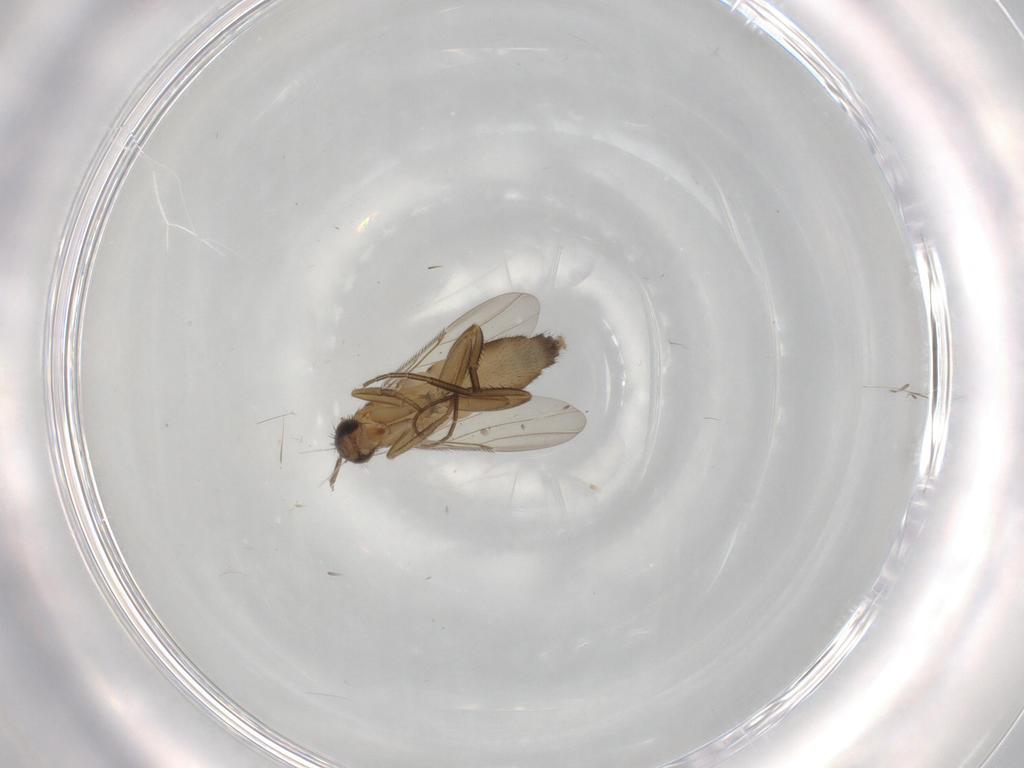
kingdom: Animalia
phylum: Arthropoda
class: Insecta
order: Diptera
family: Phoridae
